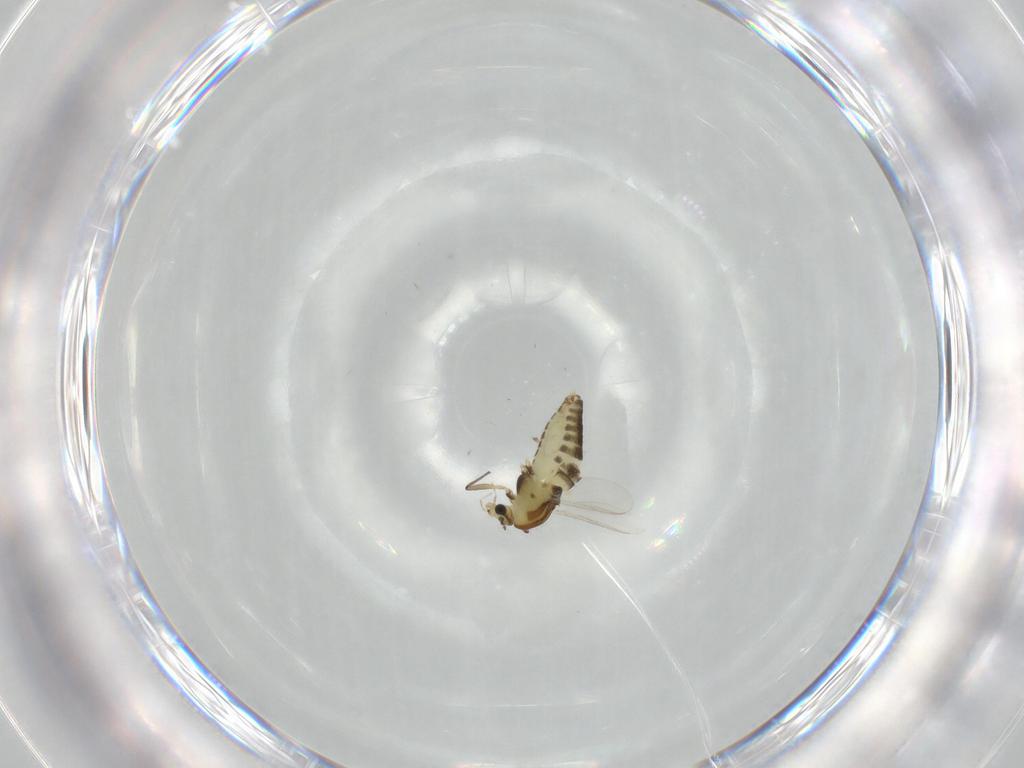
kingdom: Animalia
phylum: Arthropoda
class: Insecta
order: Diptera
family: Chironomidae
